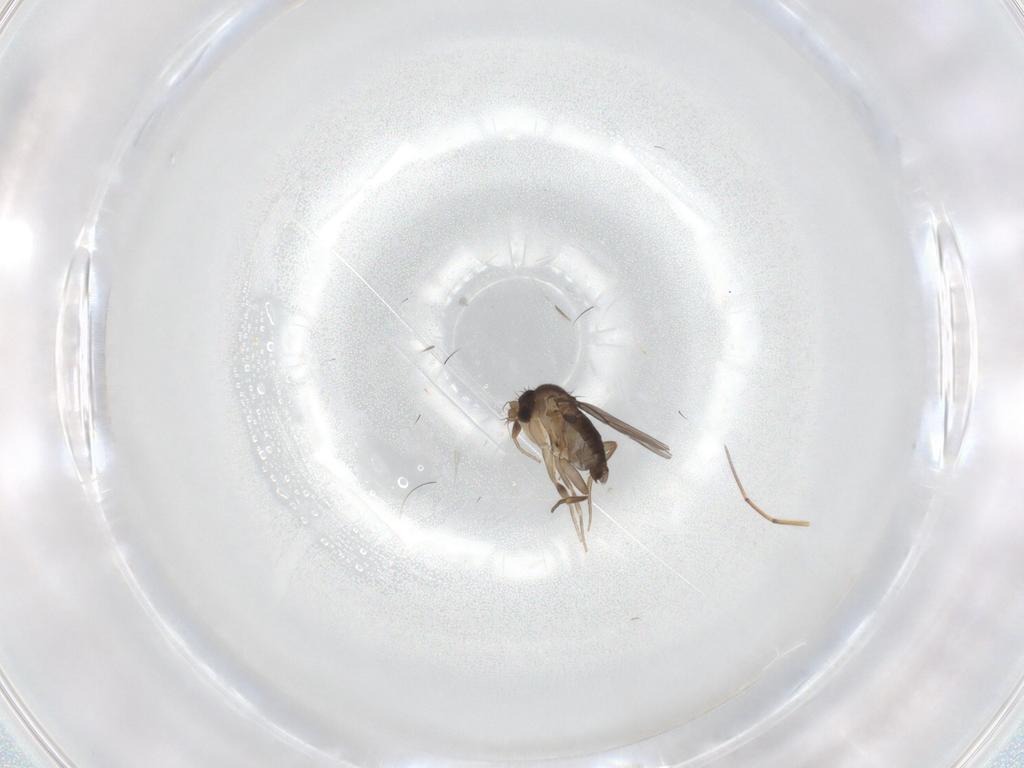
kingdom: Animalia
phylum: Arthropoda
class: Insecta
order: Diptera
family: Phoridae
